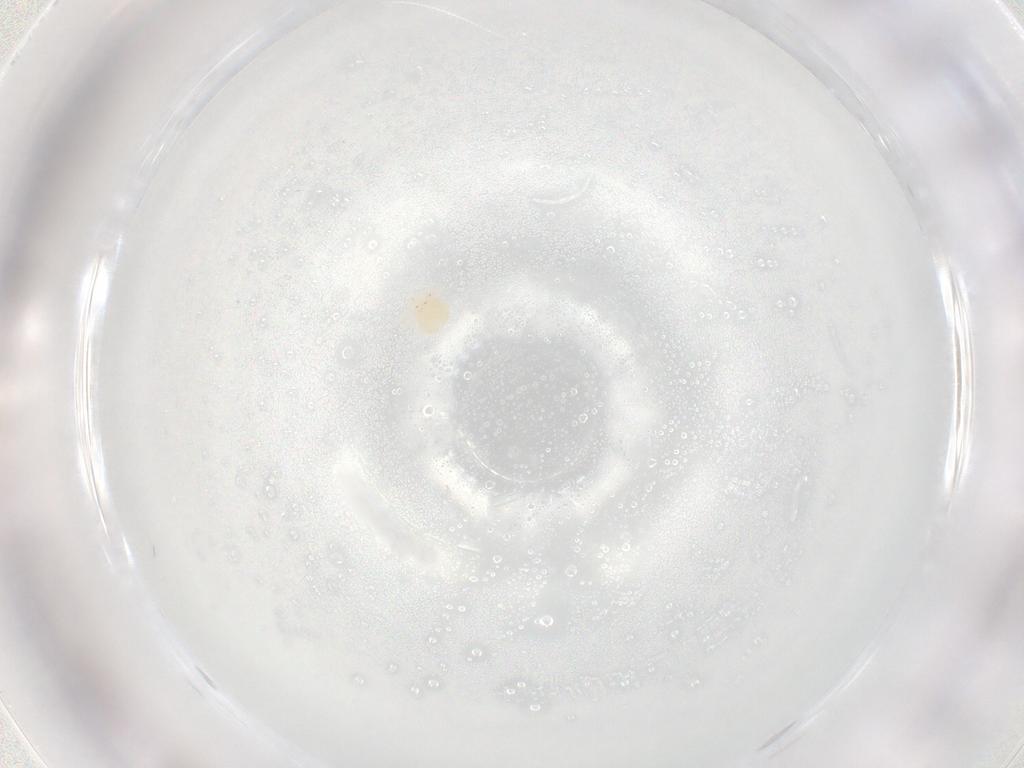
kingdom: Animalia
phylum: Arthropoda
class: Arachnida
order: Trombidiformes
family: Anystidae
